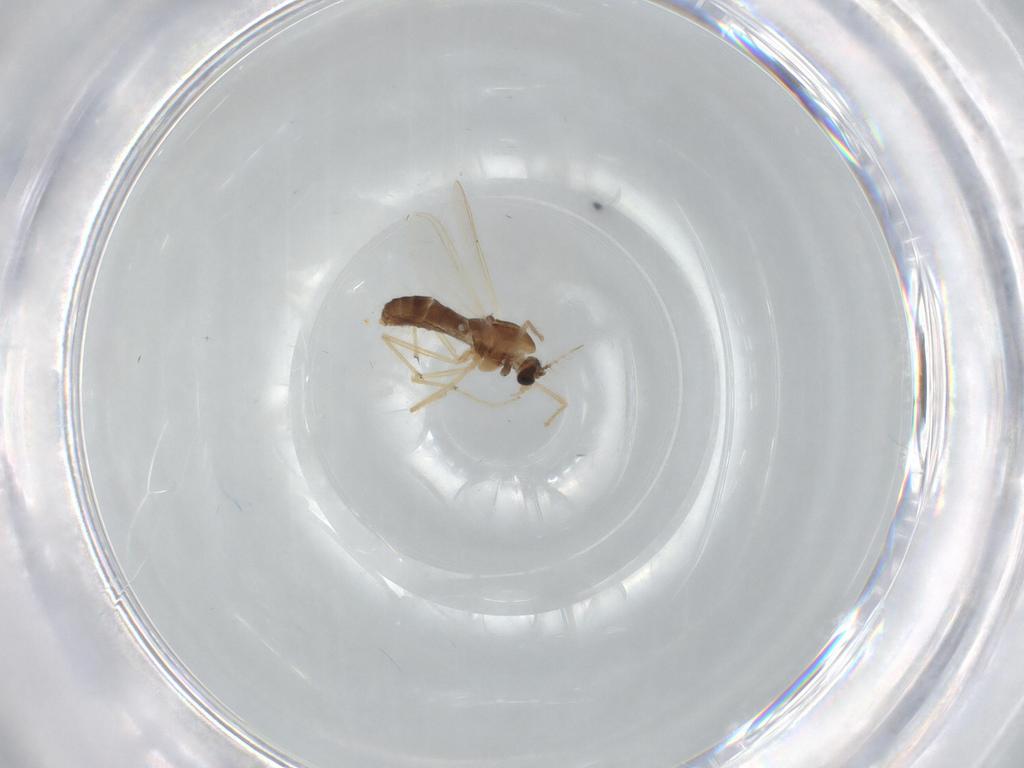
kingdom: Animalia
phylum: Arthropoda
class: Insecta
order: Diptera
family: Chironomidae
